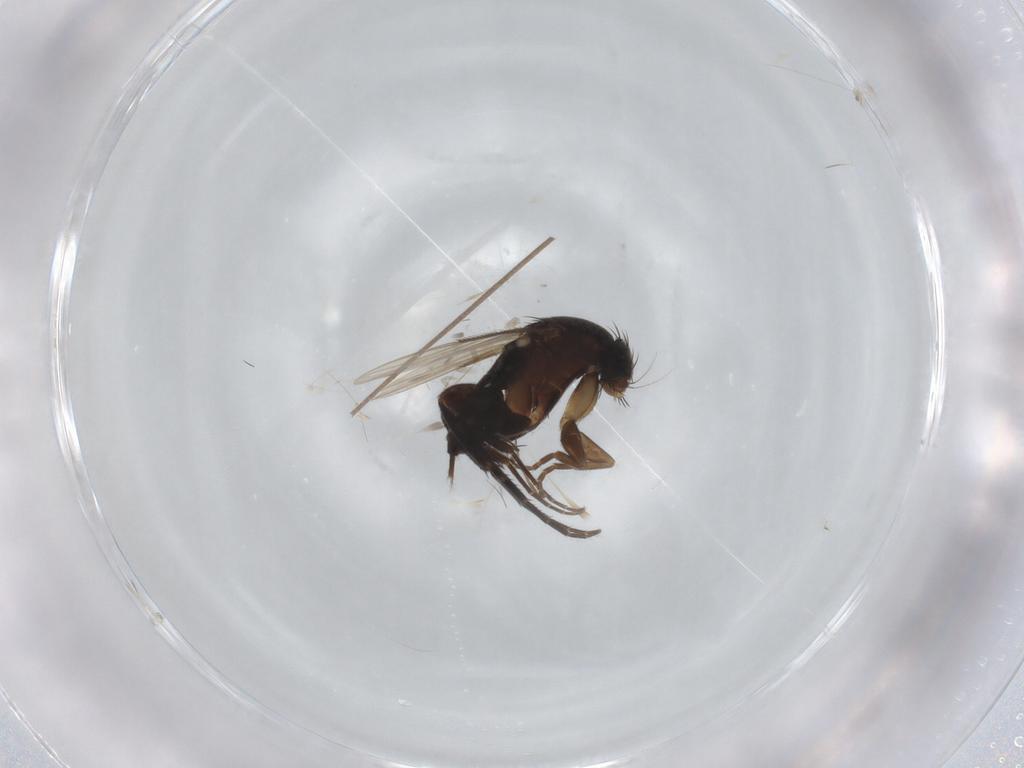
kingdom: Animalia
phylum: Arthropoda
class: Insecta
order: Diptera
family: Phoridae
